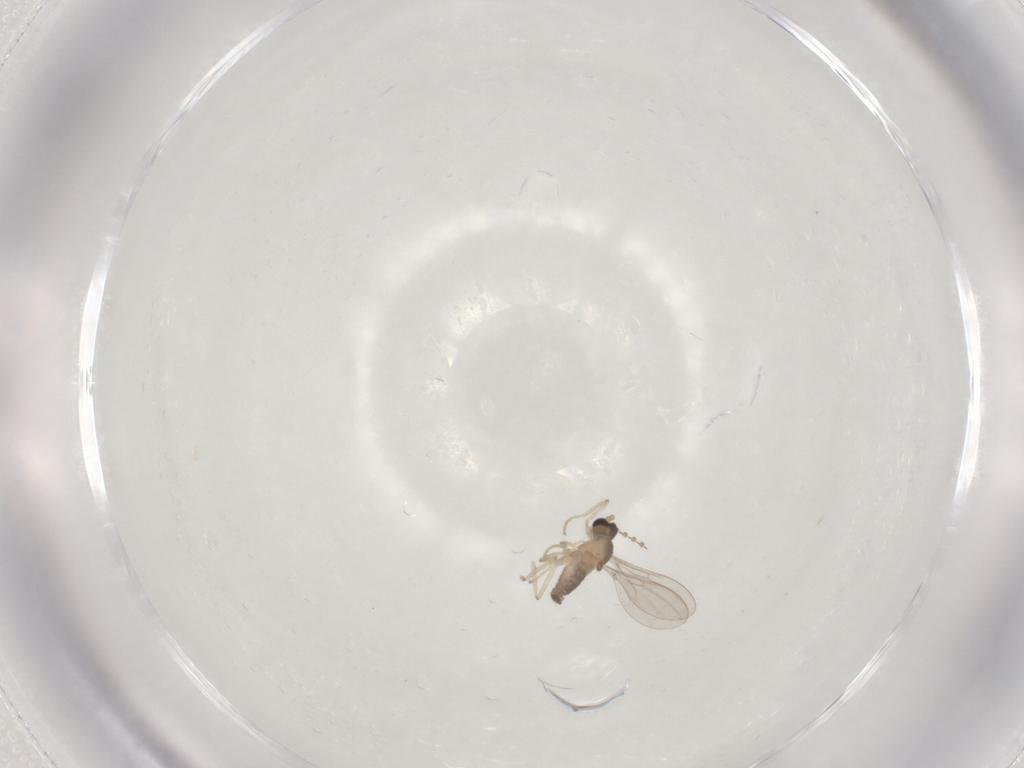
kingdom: Animalia
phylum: Arthropoda
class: Insecta
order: Diptera
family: Cecidomyiidae
